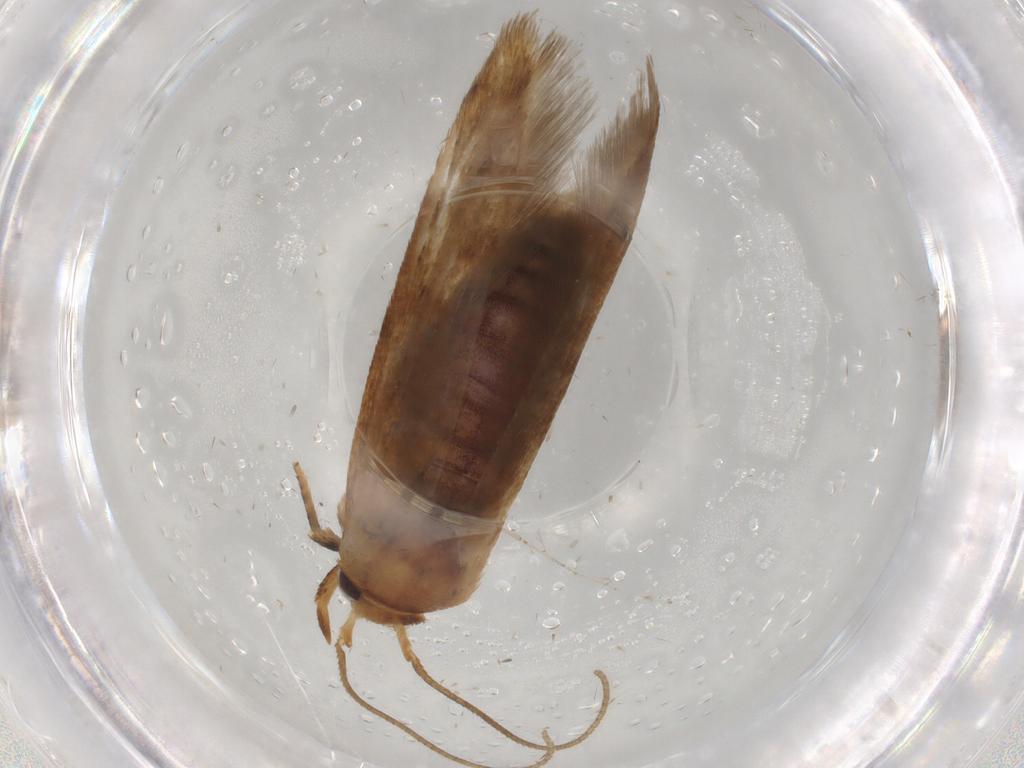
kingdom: Animalia
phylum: Arthropoda
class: Insecta
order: Lepidoptera
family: Blastobasidae
